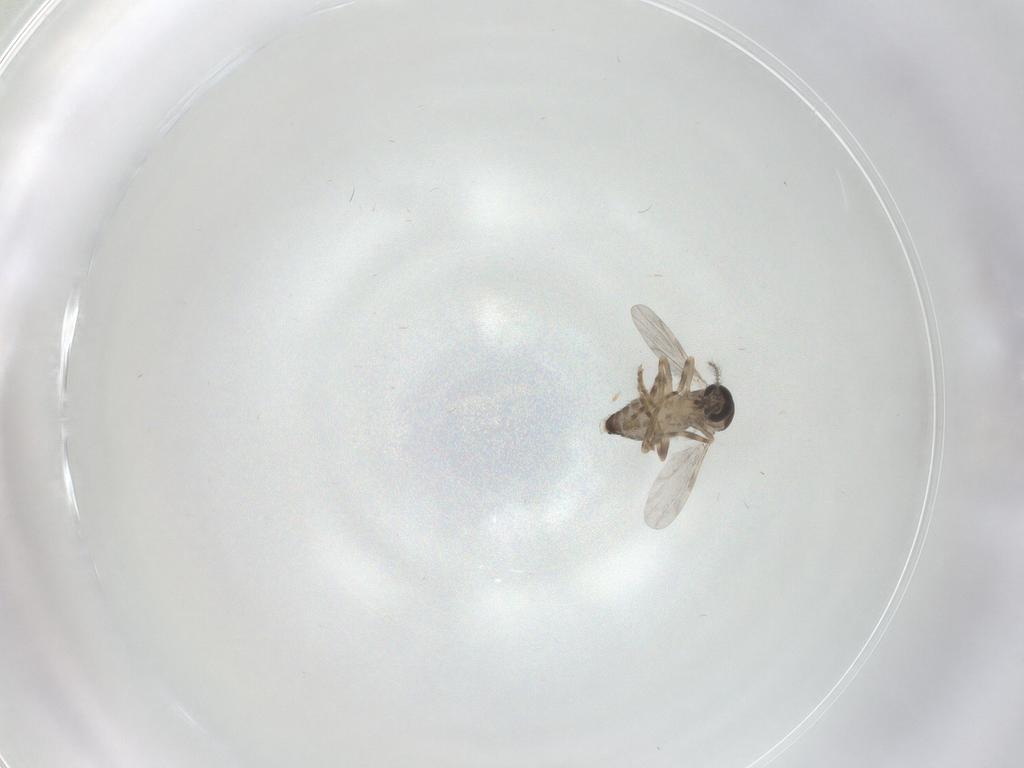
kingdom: Animalia
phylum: Arthropoda
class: Insecta
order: Diptera
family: Ceratopogonidae
